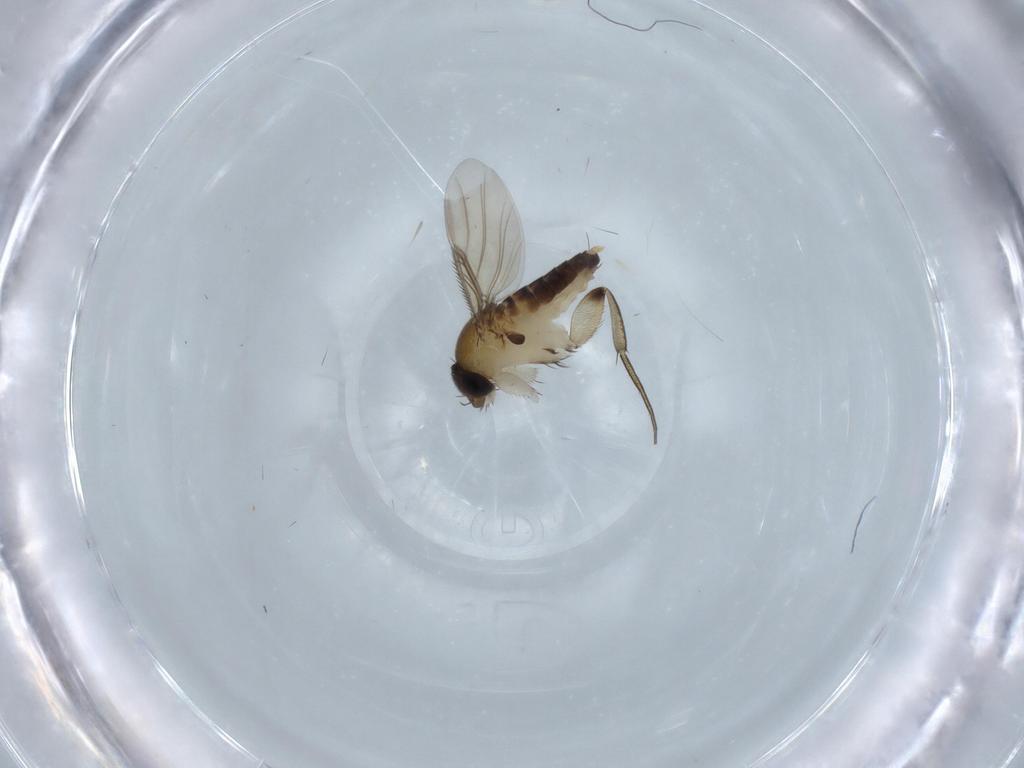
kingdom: Animalia
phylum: Arthropoda
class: Insecta
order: Diptera
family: Phoridae
